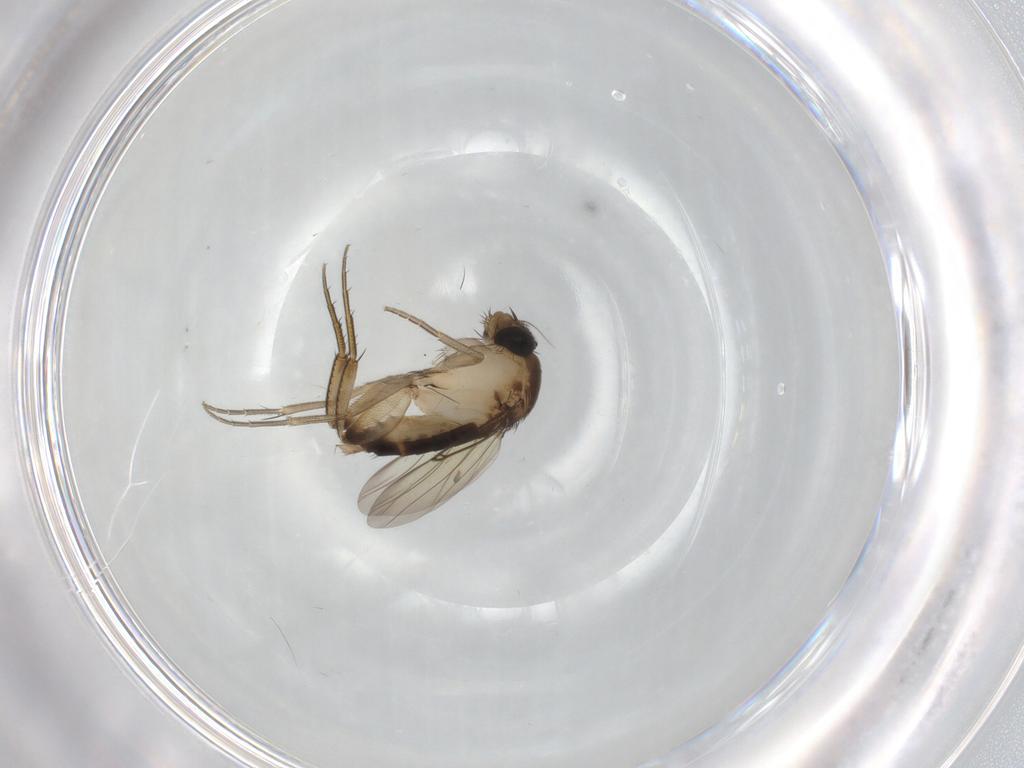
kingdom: Animalia
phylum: Arthropoda
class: Insecta
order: Diptera
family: Ceratopogonidae
